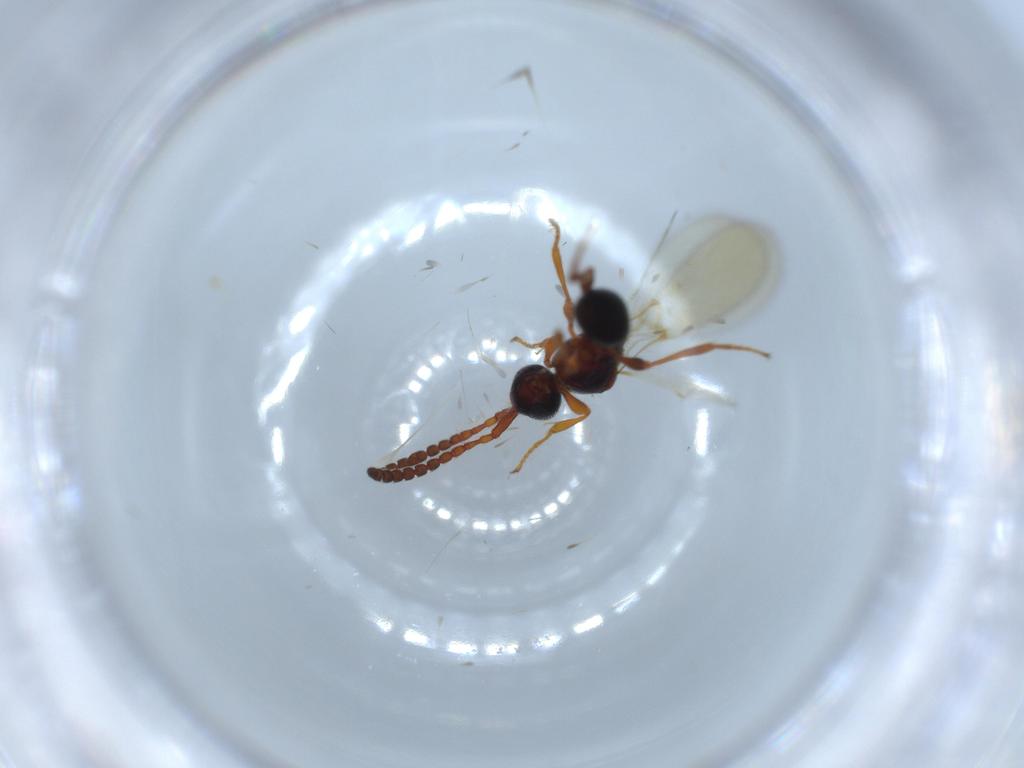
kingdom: Animalia
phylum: Arthropoda
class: Insecta
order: Hymenoptera
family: Diapriidae
